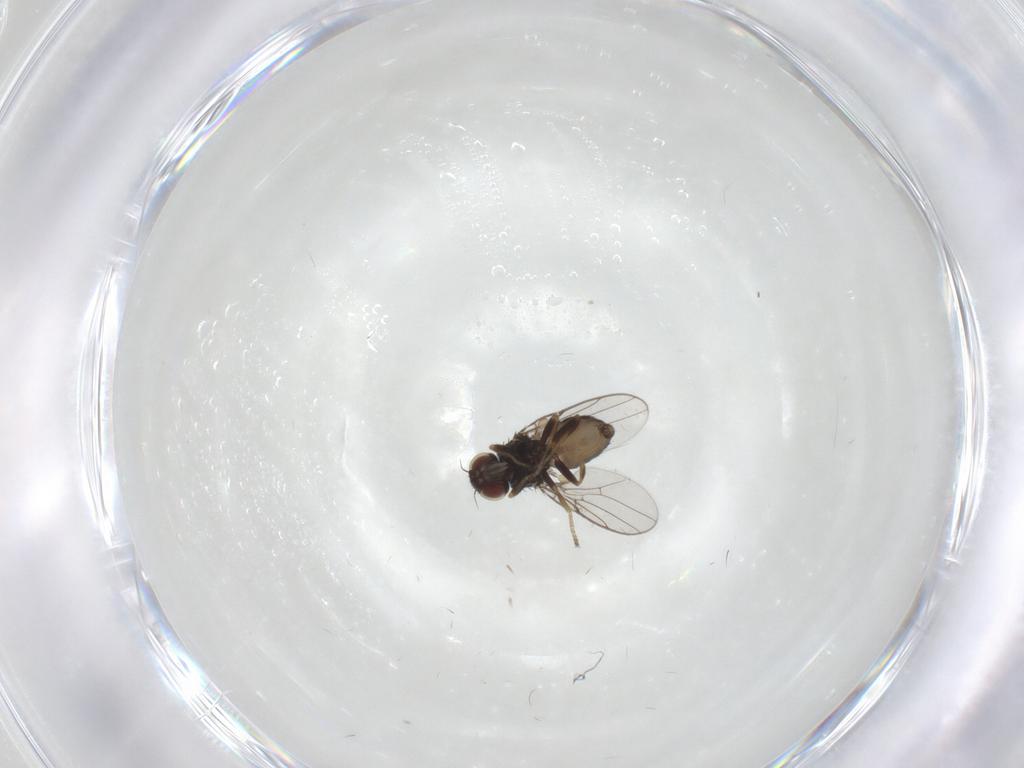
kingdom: Animalia
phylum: Arthropoda
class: Insecta
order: Diptera
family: Chloropidae
